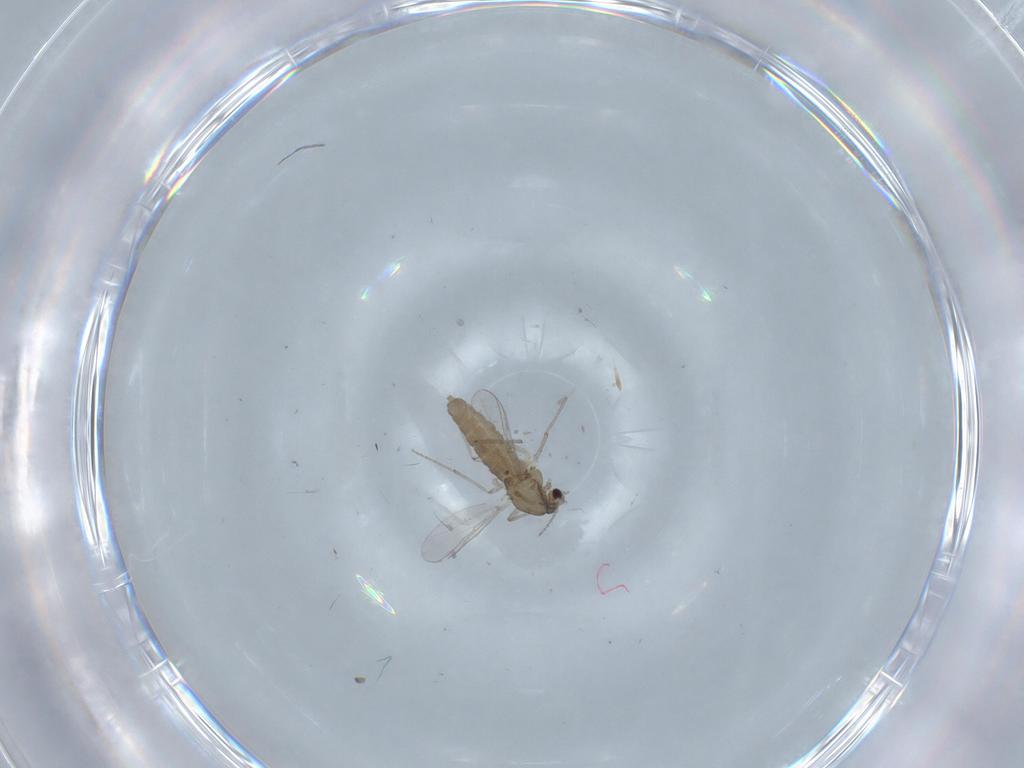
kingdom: Animalia
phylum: Arthropoda
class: Insecta
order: Diptera
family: Chironomidae
